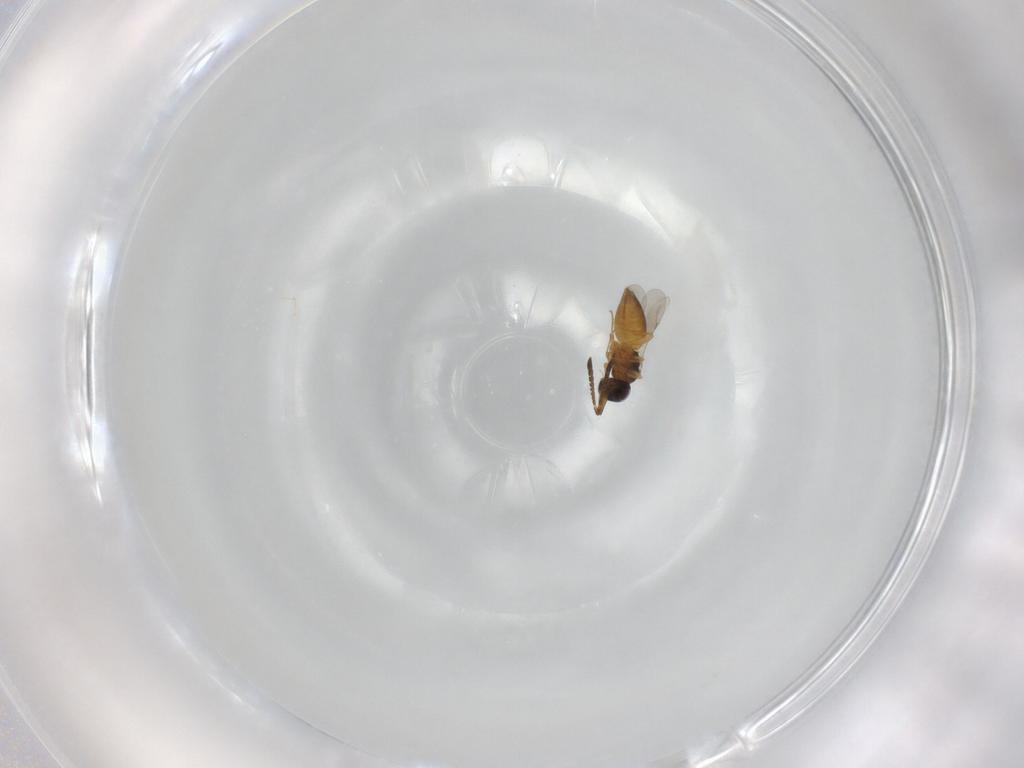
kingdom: Animalia
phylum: Arthropoda
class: Insecta
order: Hymenoptera
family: Ceraphronidae
